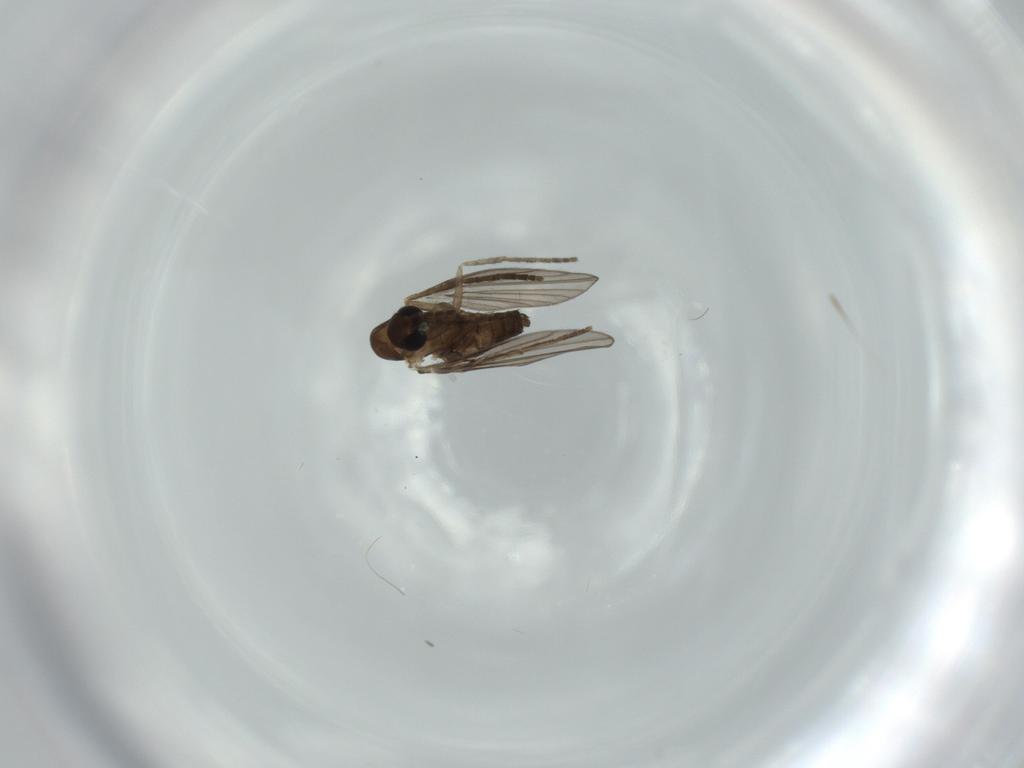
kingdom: Animalia
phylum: Arthropoda
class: Insecta
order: Diptera
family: Psychodidae
